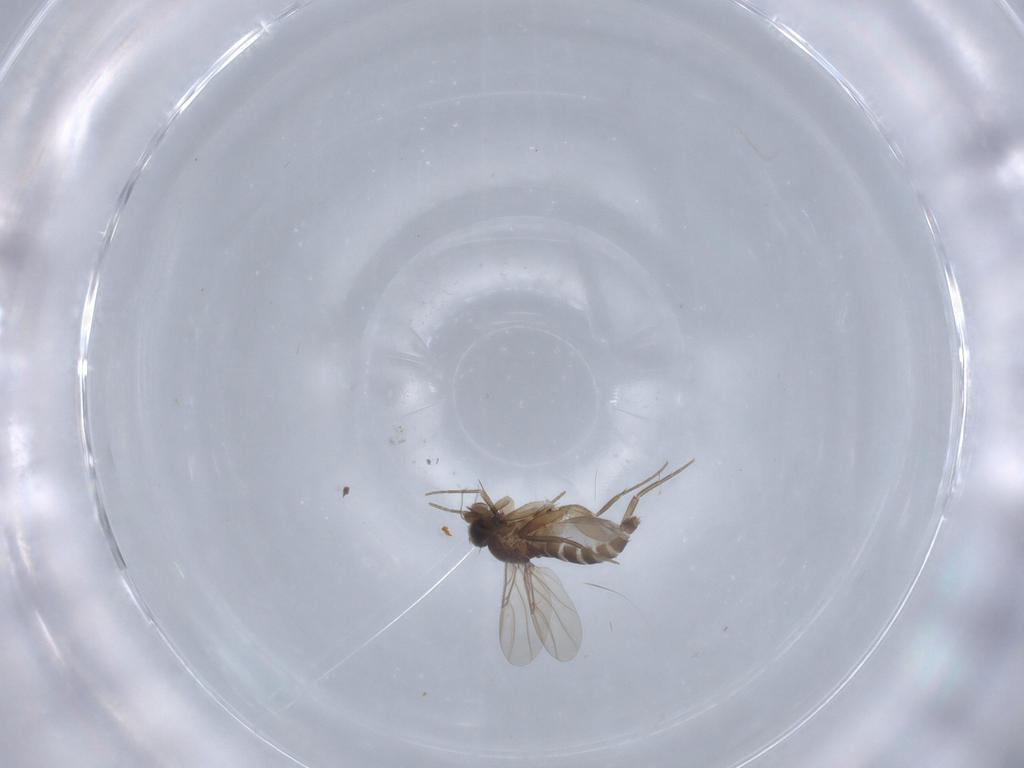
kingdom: Animalia
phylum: Arthropoda
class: Insecta
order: Diptera
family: Phoridae
